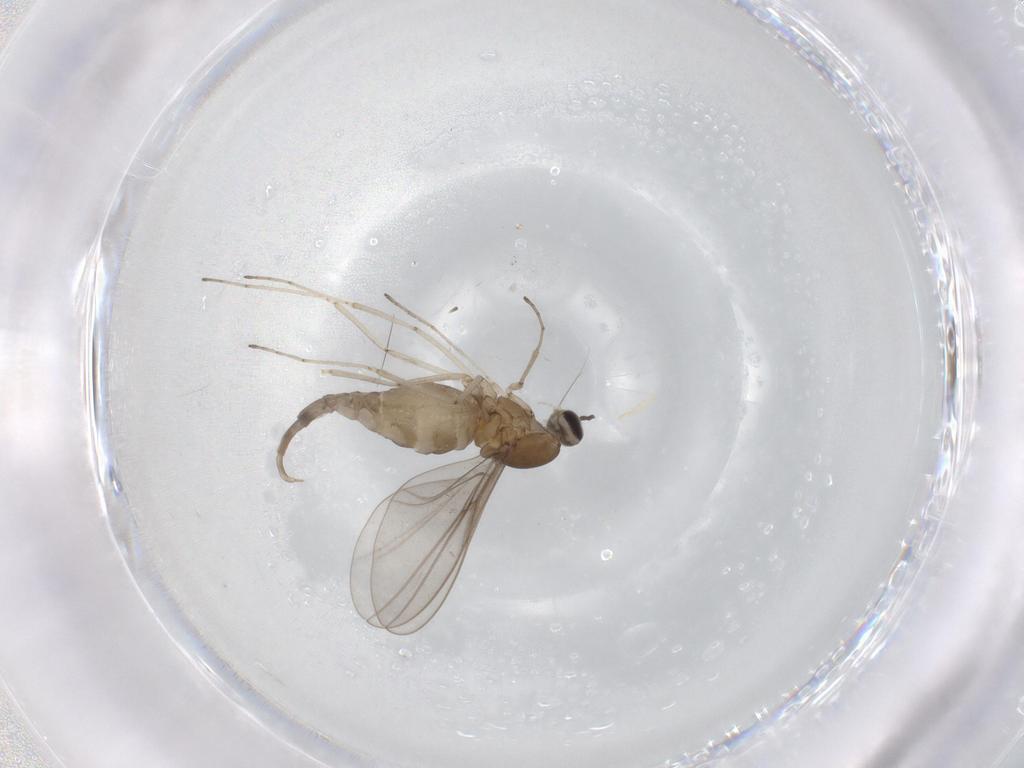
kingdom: Animalia
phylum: Arthropoda
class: Insecta
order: Diptera
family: Cecidomyiidae
